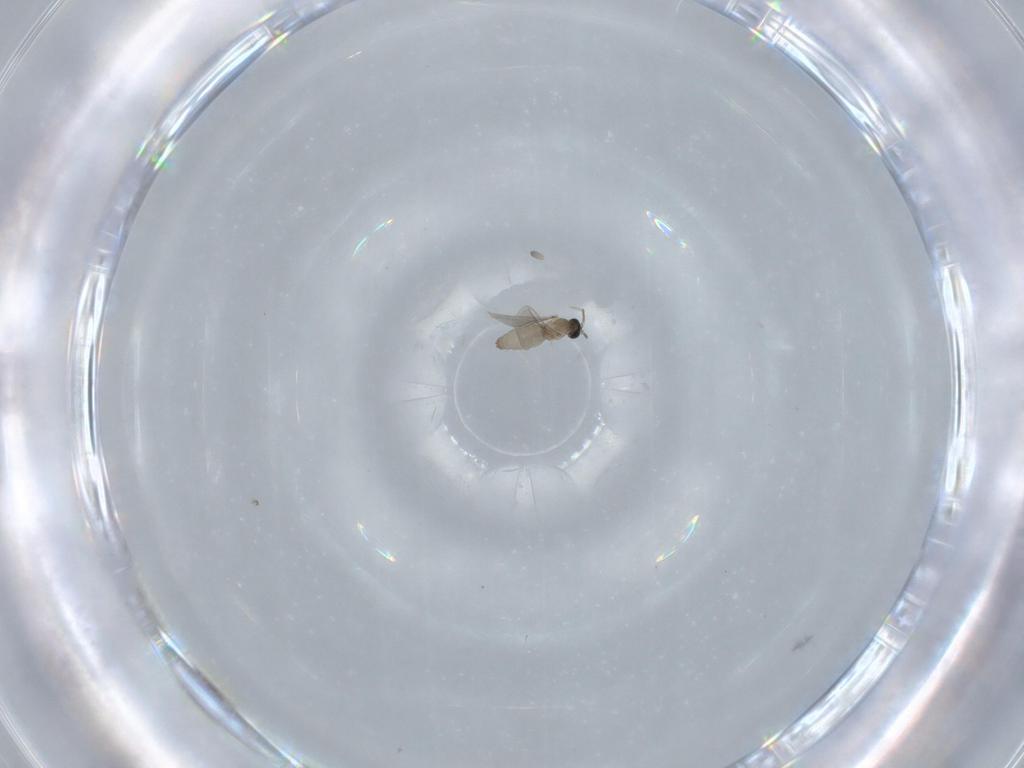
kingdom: Animalia
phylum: Arthropoda
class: Insecta
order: Diptera
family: Cecidomyiidae
